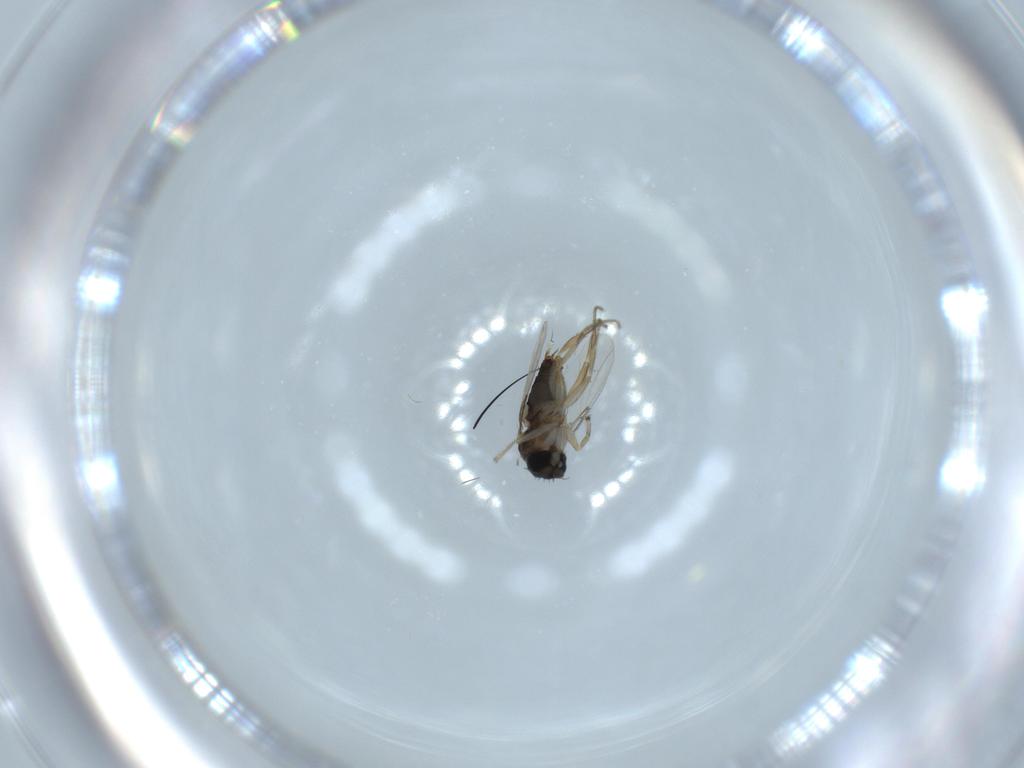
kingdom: Animalia
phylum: Arthropoda
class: Insecta
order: Diptera
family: Phoridae
